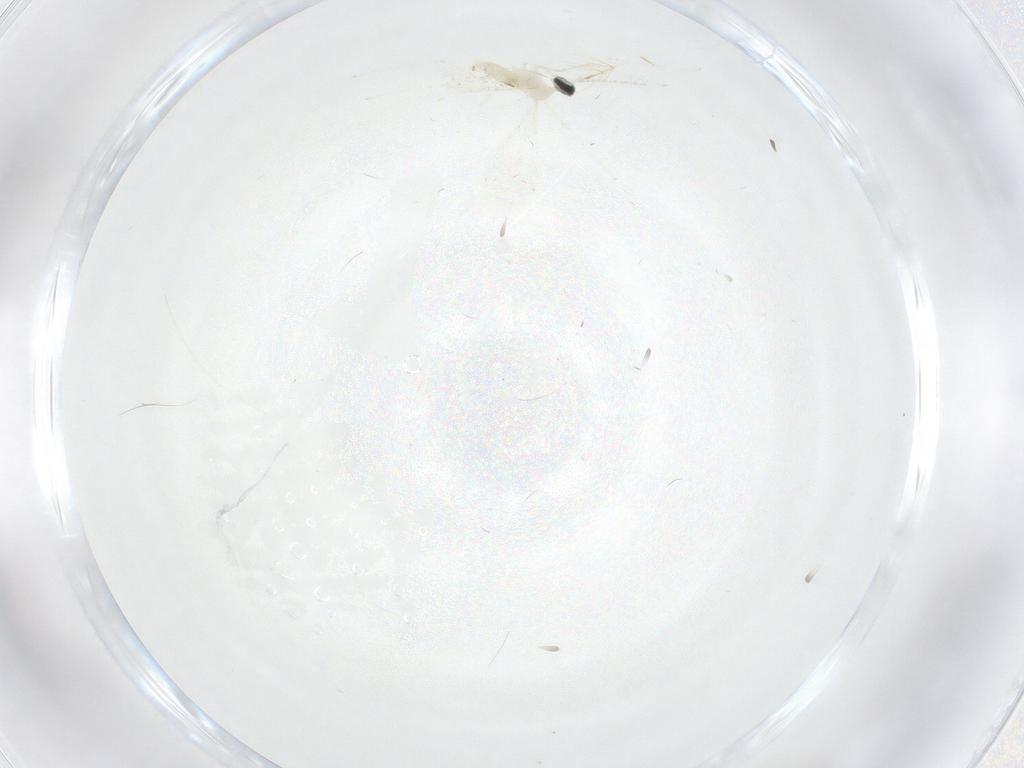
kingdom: Animalia
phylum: Arthropoda
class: Insecta
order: Diptera
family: Cecidomyiidae
